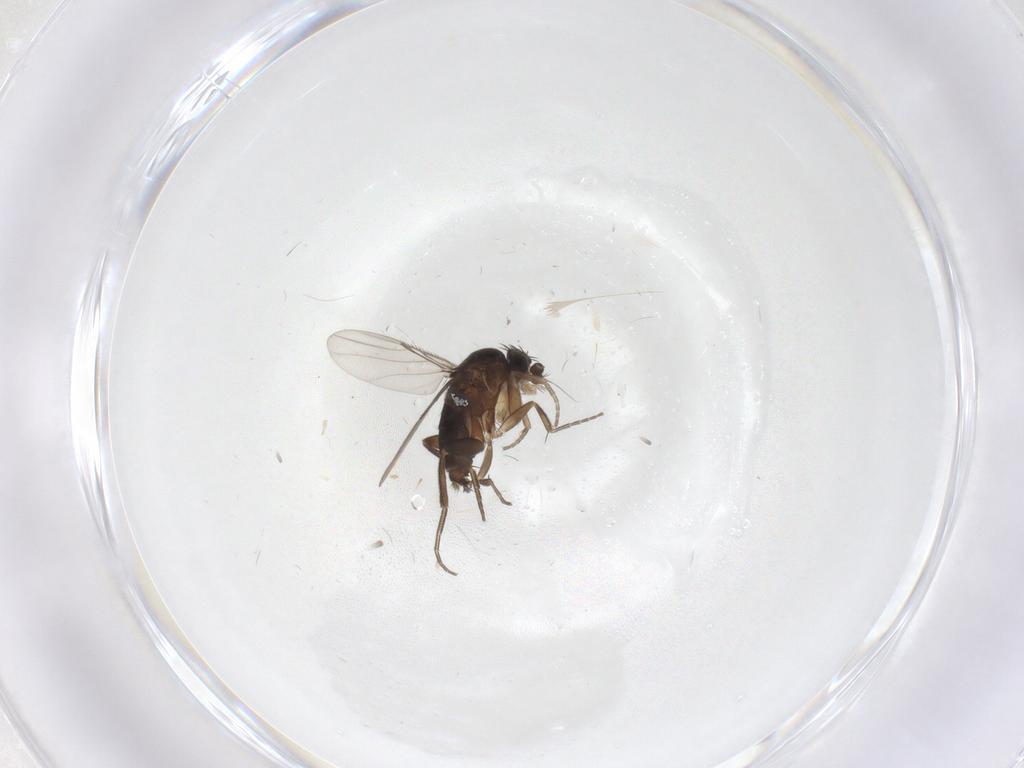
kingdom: Animalia
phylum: Arthropoda
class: Insecta
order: Diptera
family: Phoridae
